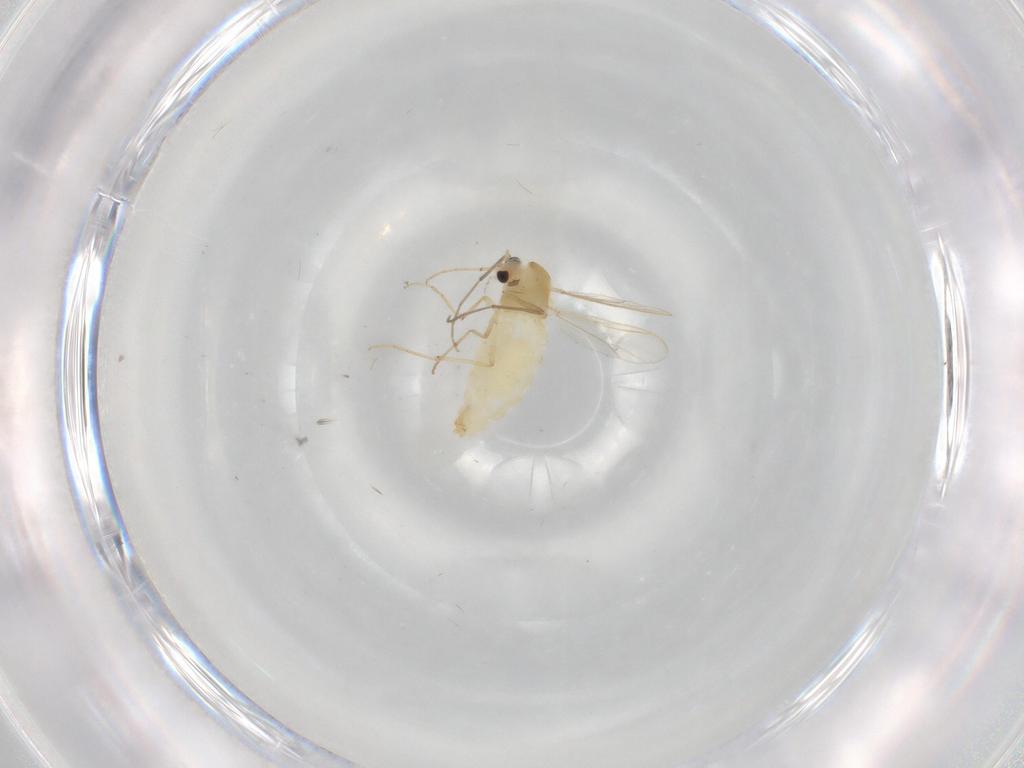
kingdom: Animalia
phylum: Arthropoda
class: Insecta
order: Diptera
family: Chironomidae
